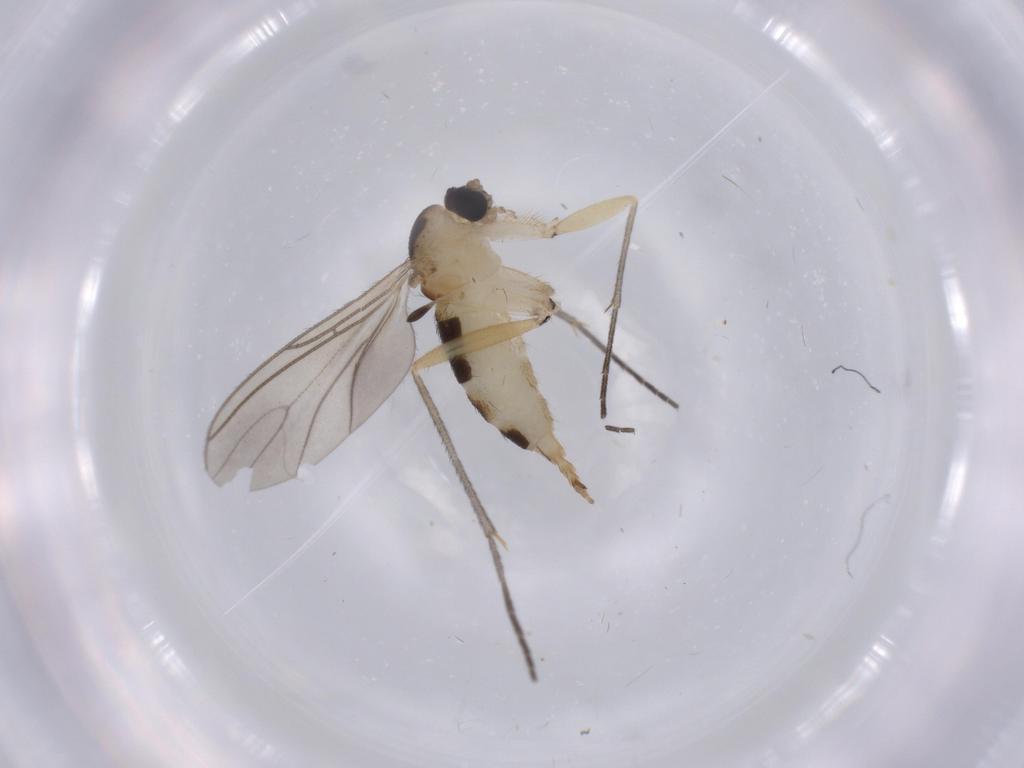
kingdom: Animalia
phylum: Arthropoda
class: Insecta
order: Diptera
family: Sciaridae
